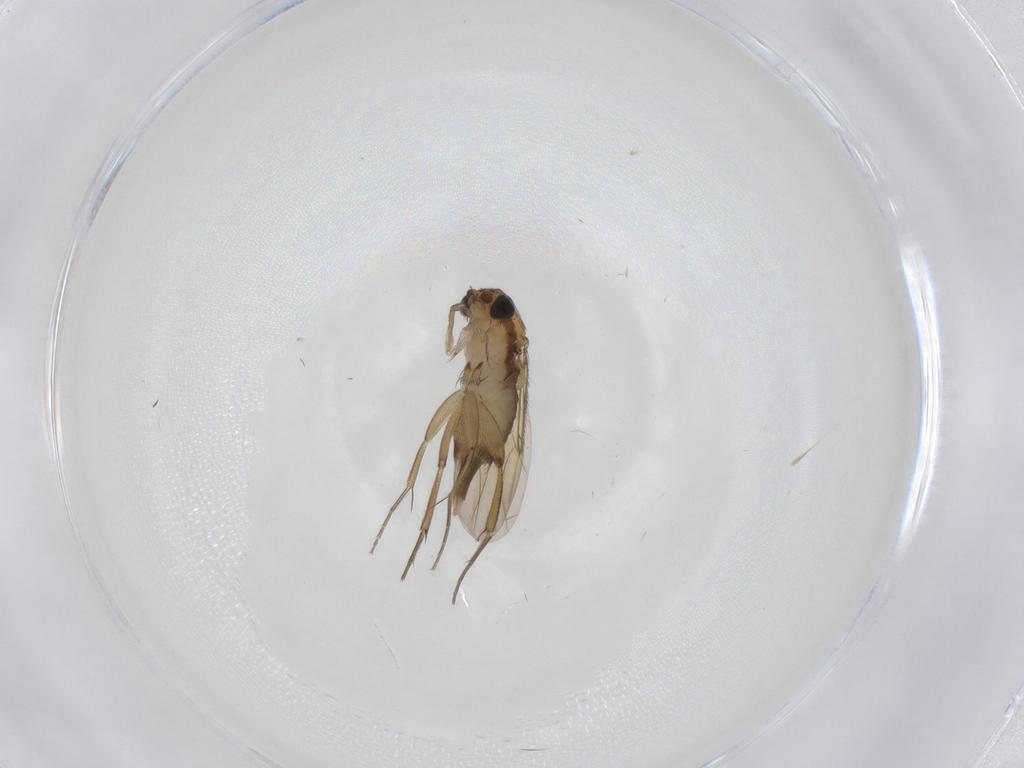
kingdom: Animalia
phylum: Arthropoda
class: Insecta
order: Diptera
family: Phoridae
